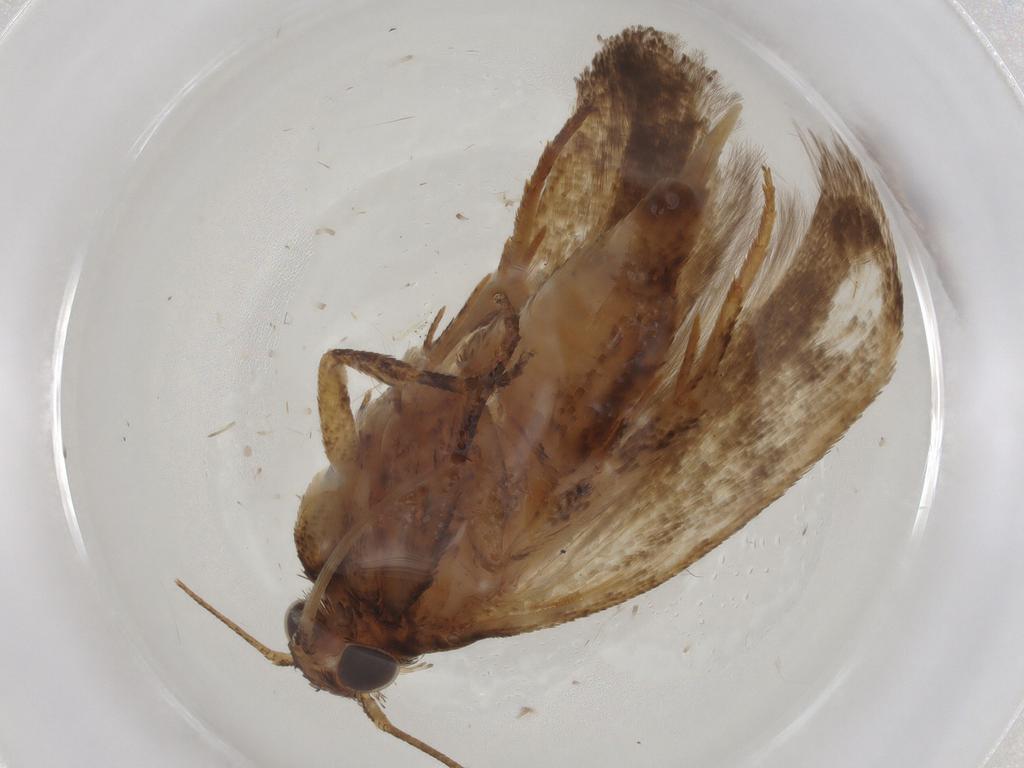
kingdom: Animalia
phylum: Arthropoda
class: Insecta
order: Lepidoptera
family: Gelechiidae
